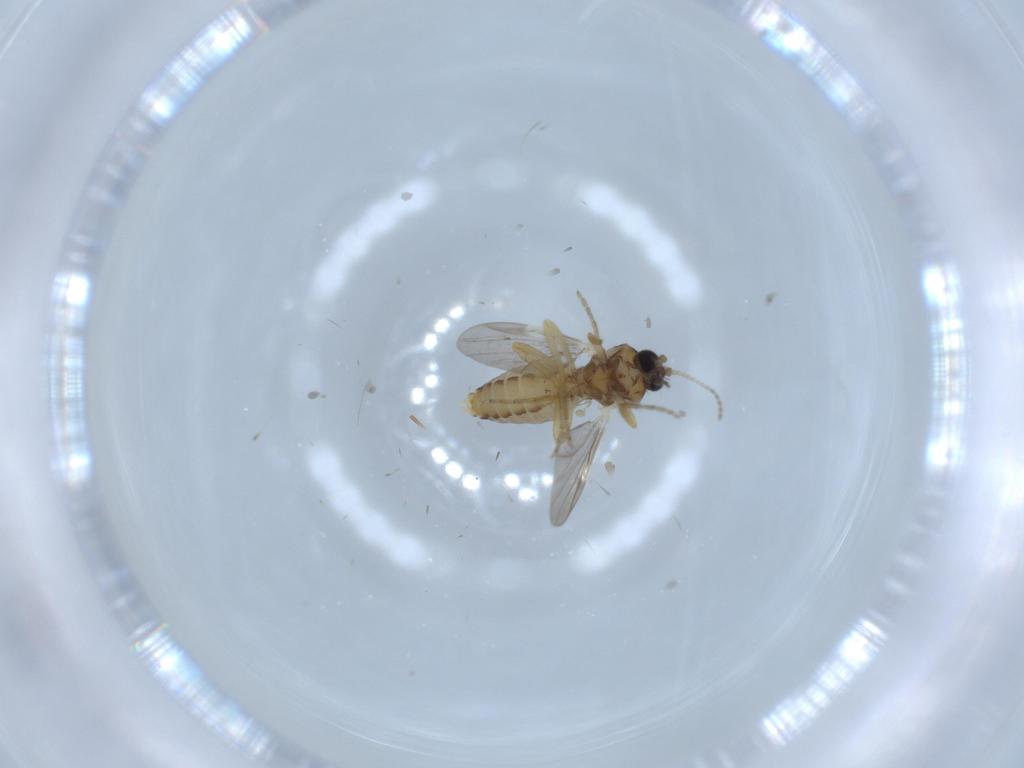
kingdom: Animalia
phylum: Arthropoda
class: Insecta
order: Diptera
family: Ceratopogonidae
